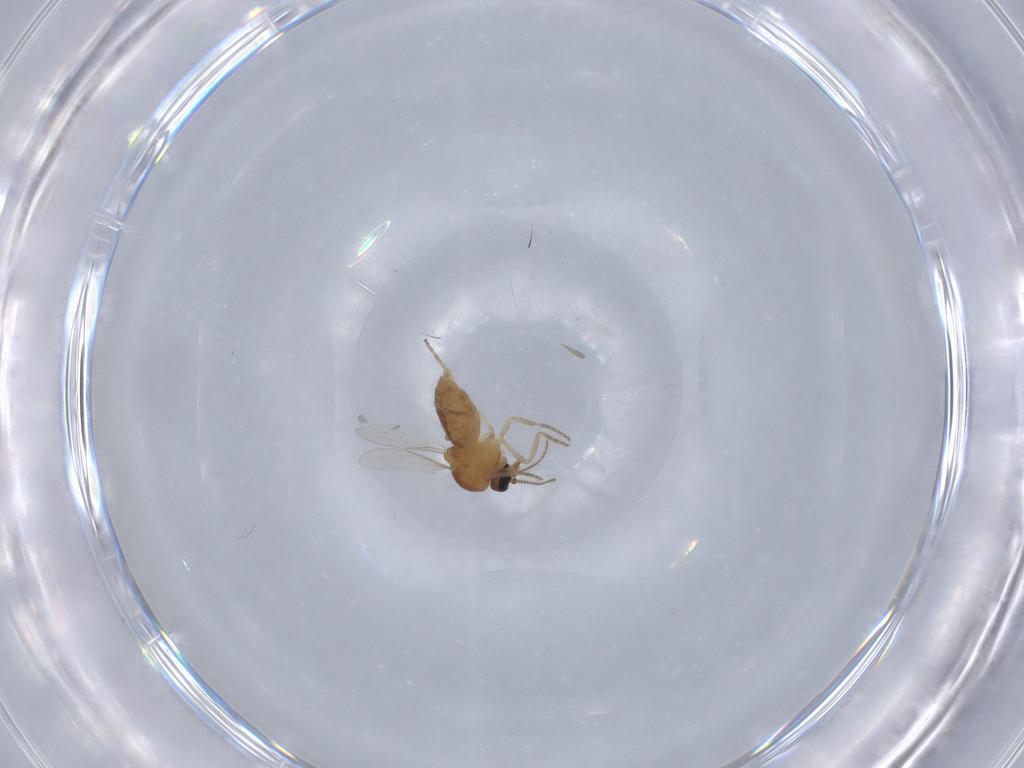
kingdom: Animalia
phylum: Arthropoda
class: Insecta
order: Diptera
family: Ceratopogonidae
